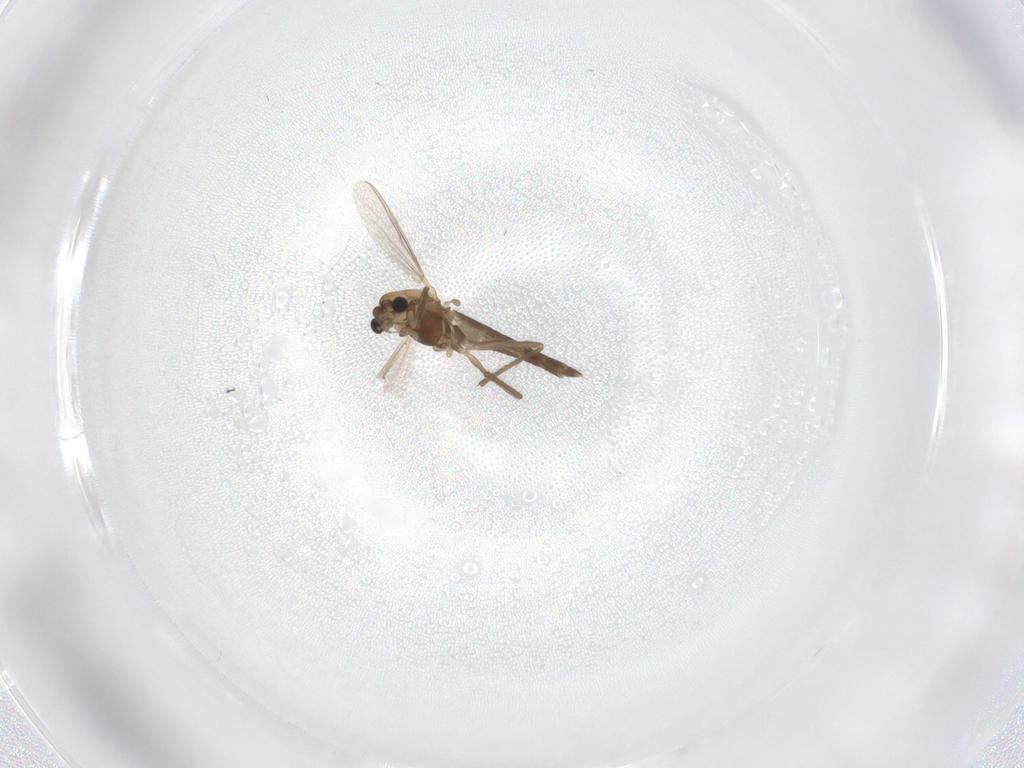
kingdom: Animalia
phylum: Arthropoda
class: Insecta
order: Diptera
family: Chironomidae
